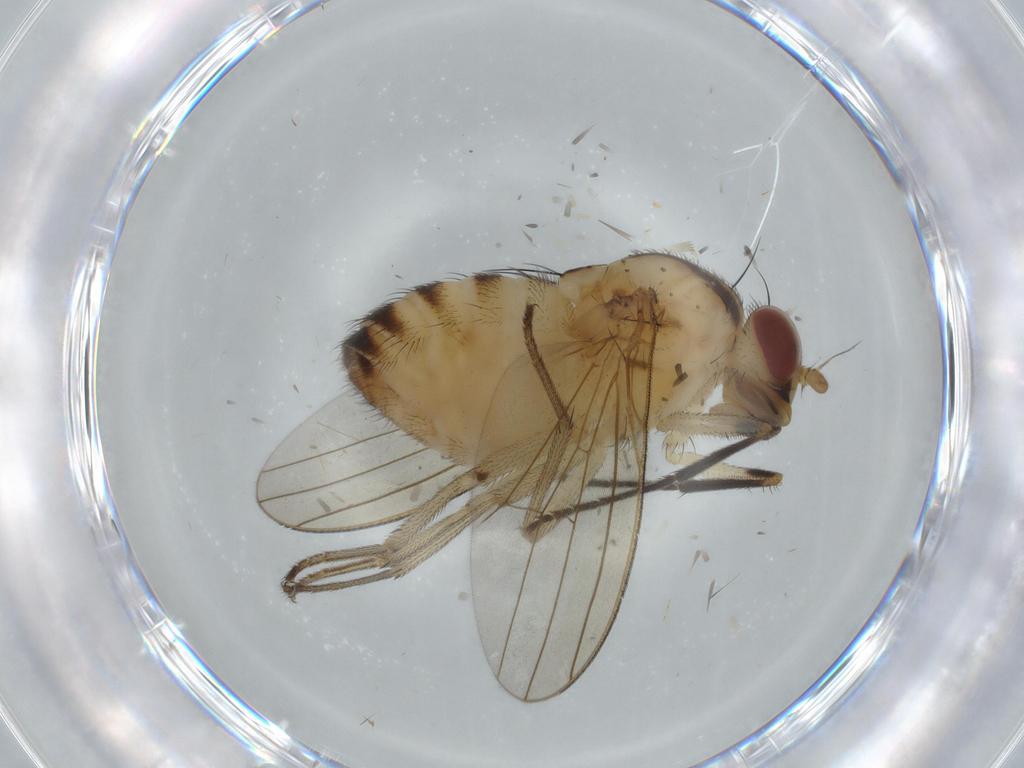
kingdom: Animalia
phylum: Arthropoda
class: Insecta
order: Diptera
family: Lauxaniidae
